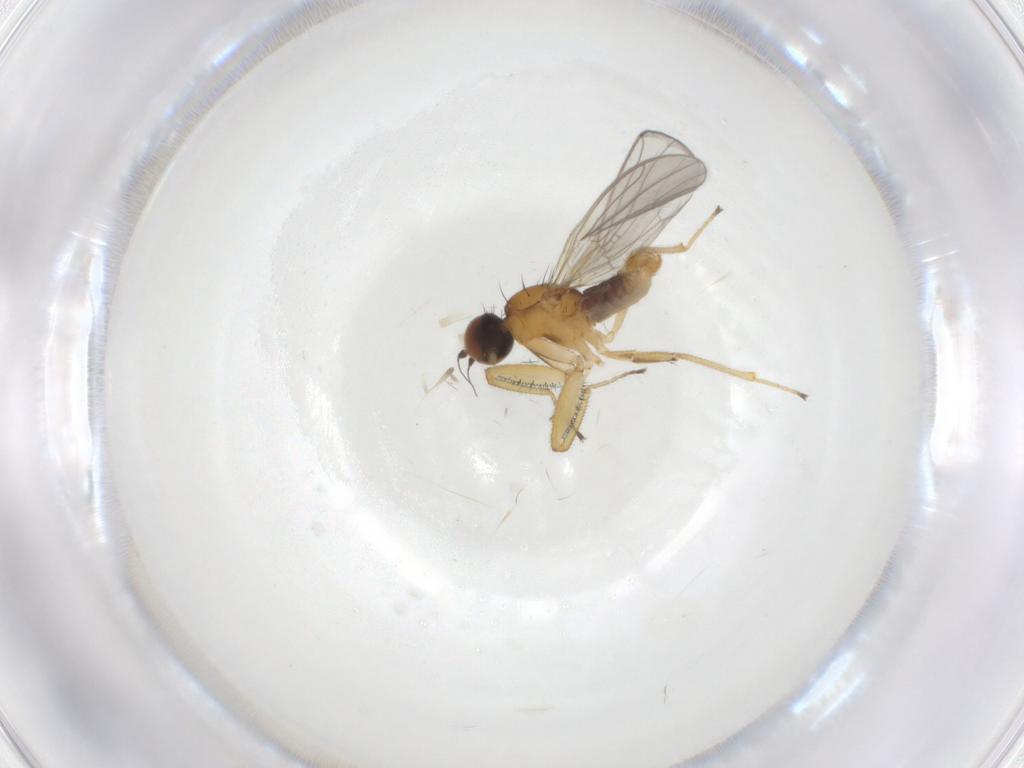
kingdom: Animalia
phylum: Arthropoda
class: Insecta
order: Diptera
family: Empididae
